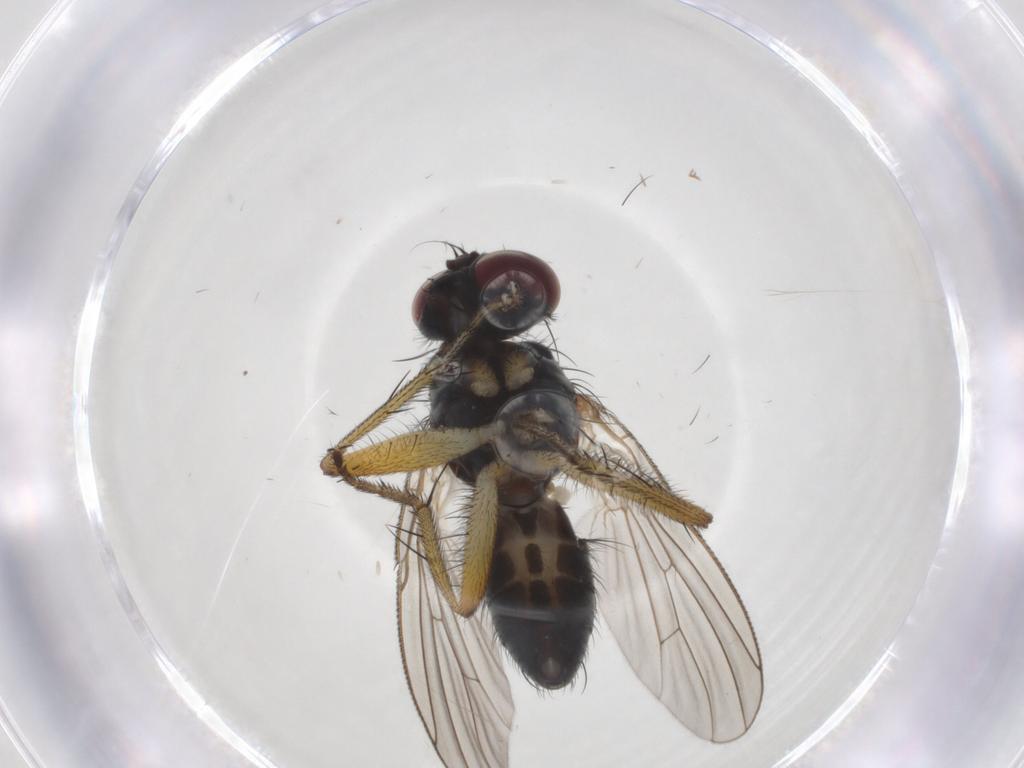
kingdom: Animalia
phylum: Arthropoda
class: Insecta
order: Diptera
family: Muscidae
